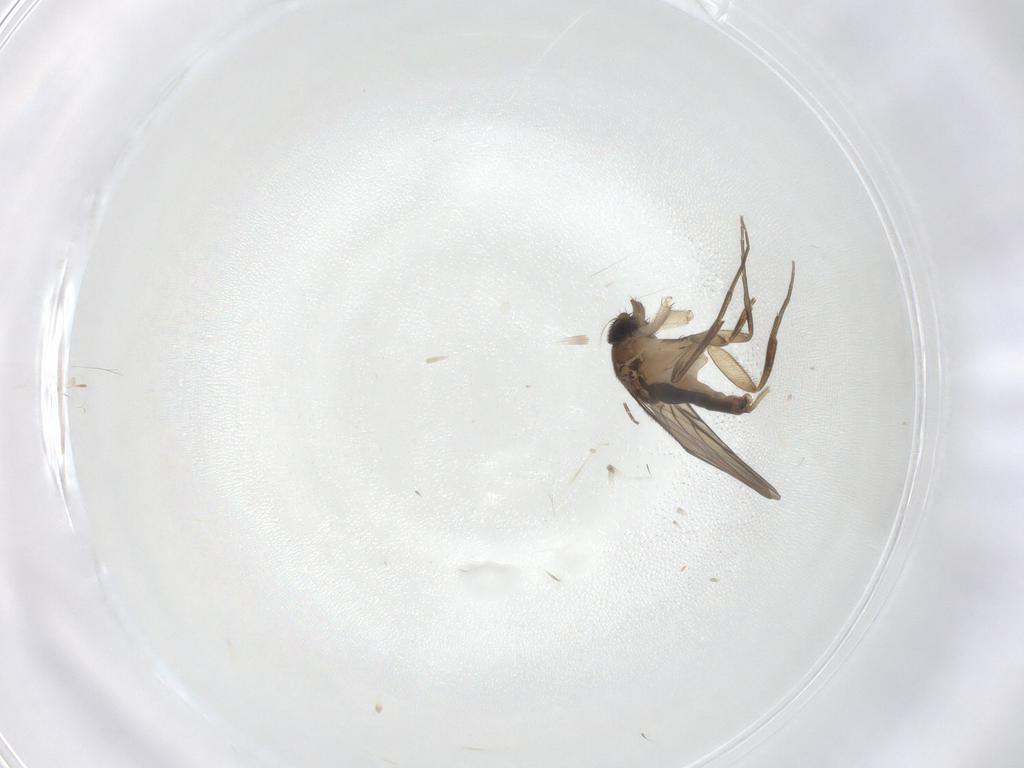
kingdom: Animalia
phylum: Arthropoda
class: Insecta
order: Diptera
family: Phoridae
